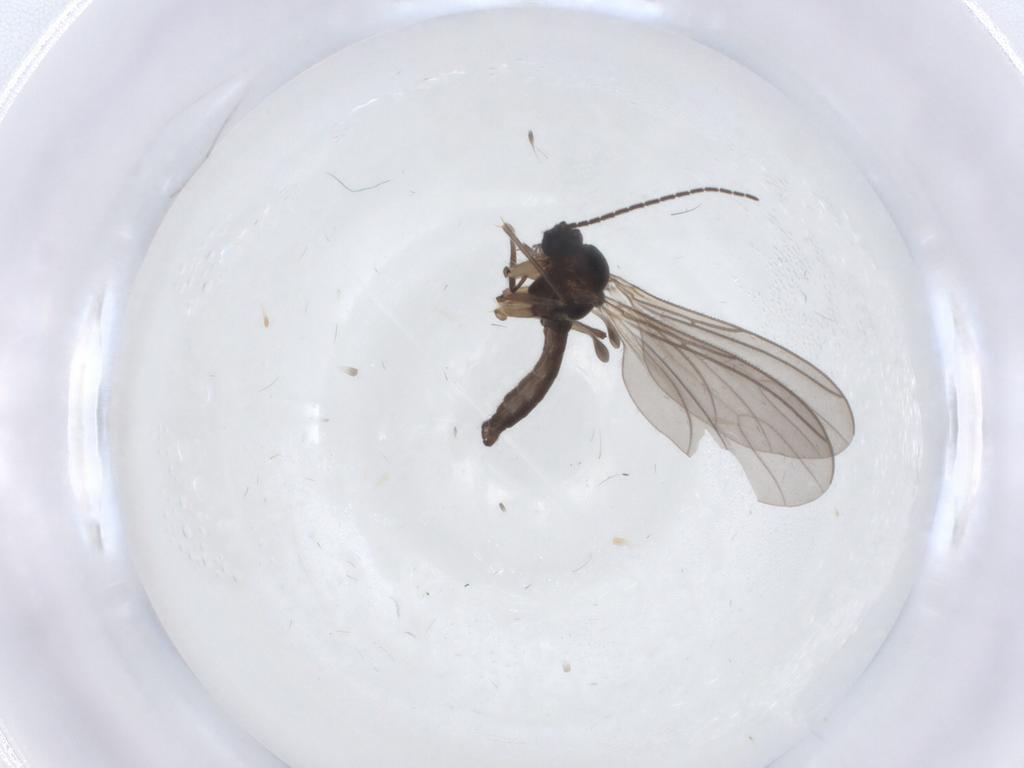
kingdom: Animalia
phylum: Arthropoda
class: Insecta
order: Diptera
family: Sciaridae
